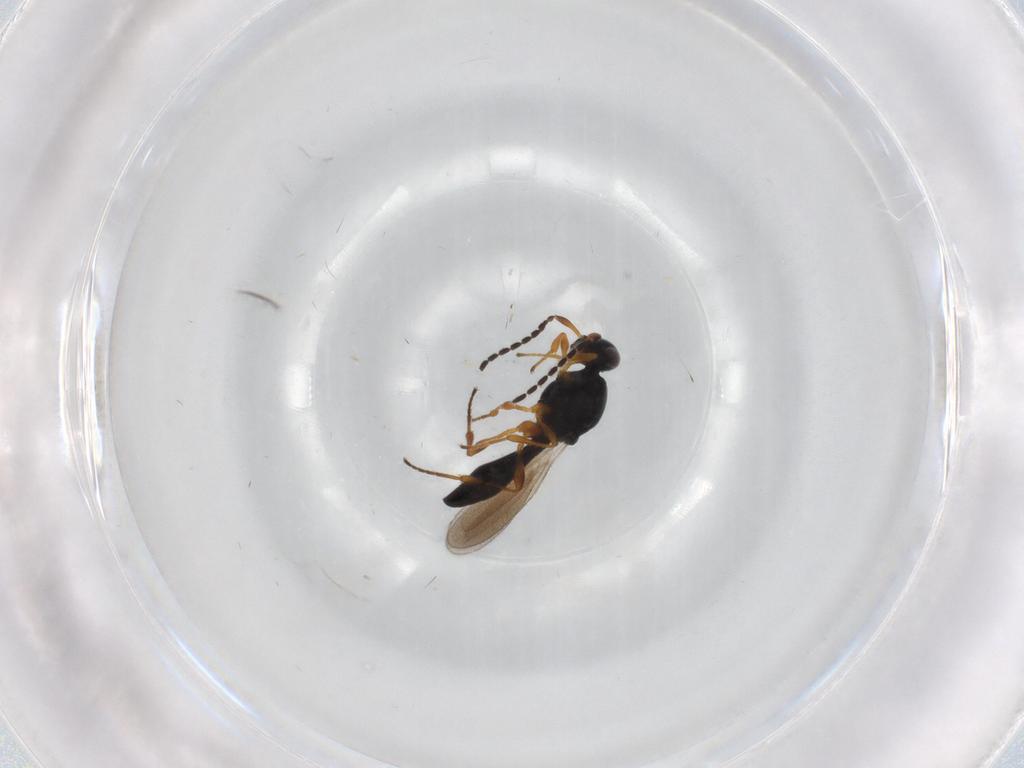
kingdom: Animalia
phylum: Arthropoda
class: Insecta
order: Hymenoptera
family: Platygastridae
